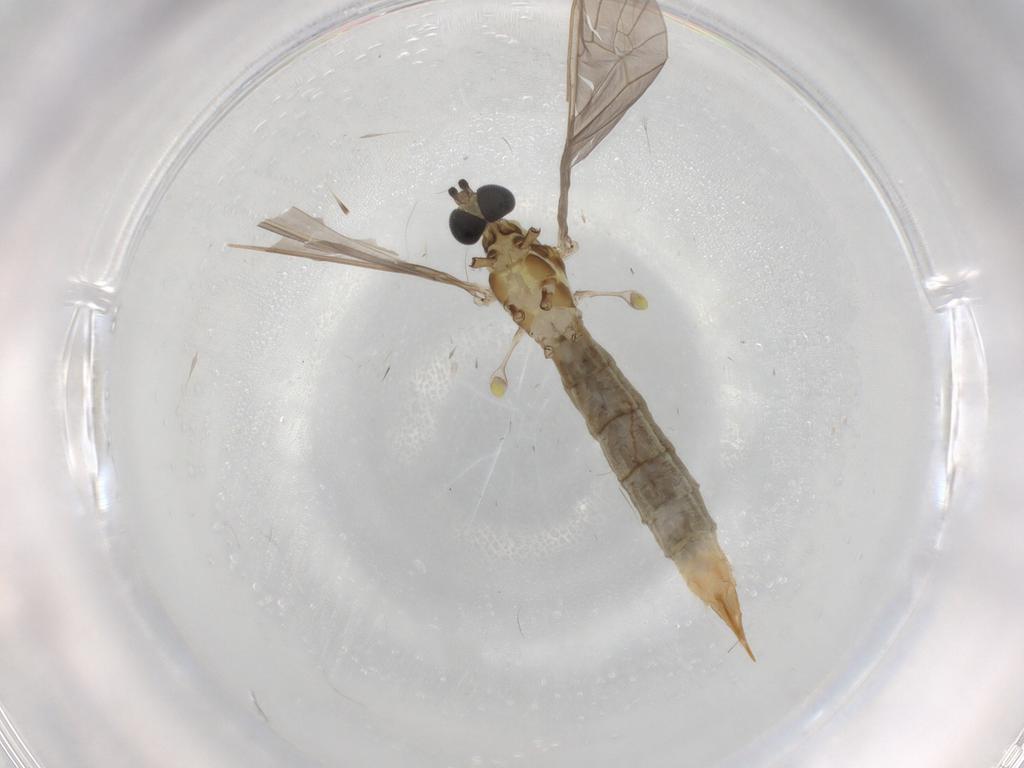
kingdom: Animalia
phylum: Arthropoda
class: Insecta
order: Diptera
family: Limoniidae
